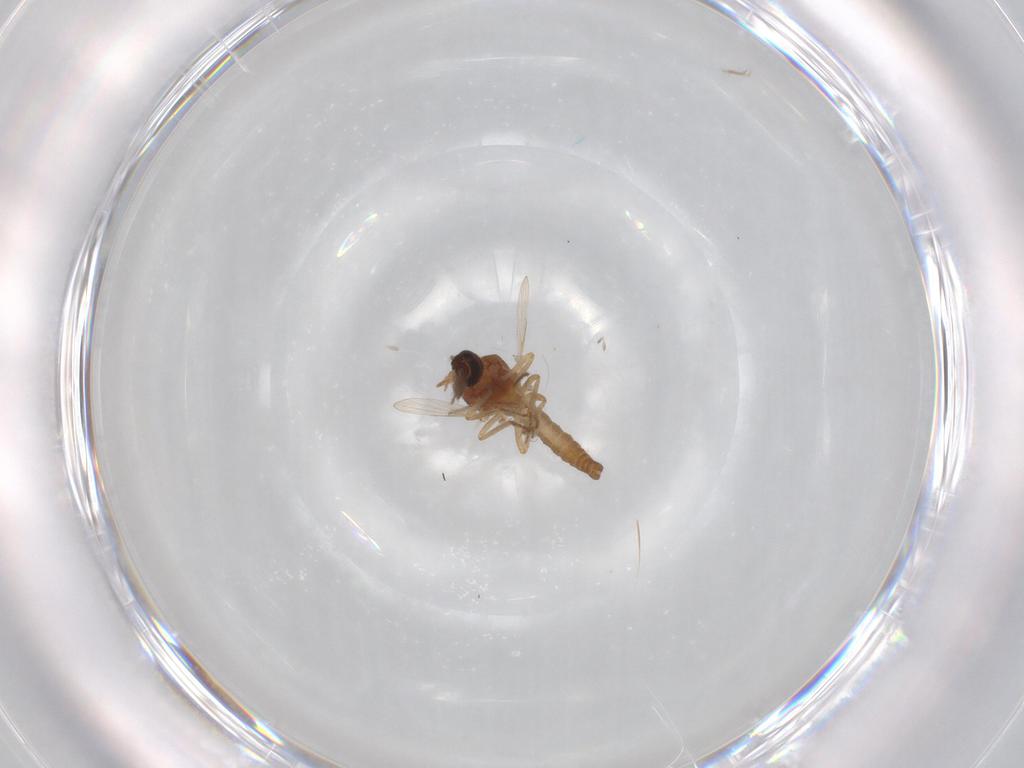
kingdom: Animalia
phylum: Arthropoda
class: Insecta
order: Diptera
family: Ceratopogonidae
